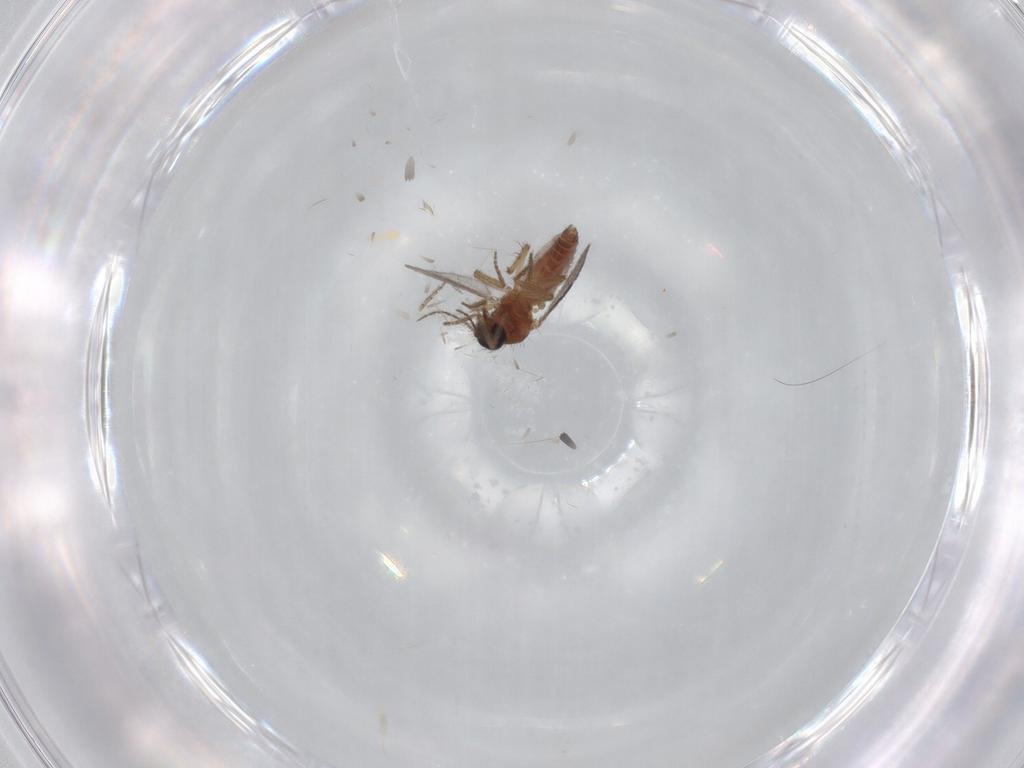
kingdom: Animalia
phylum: Arthropoda
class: Insecta
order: Diptera
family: Ceratopogonidae
